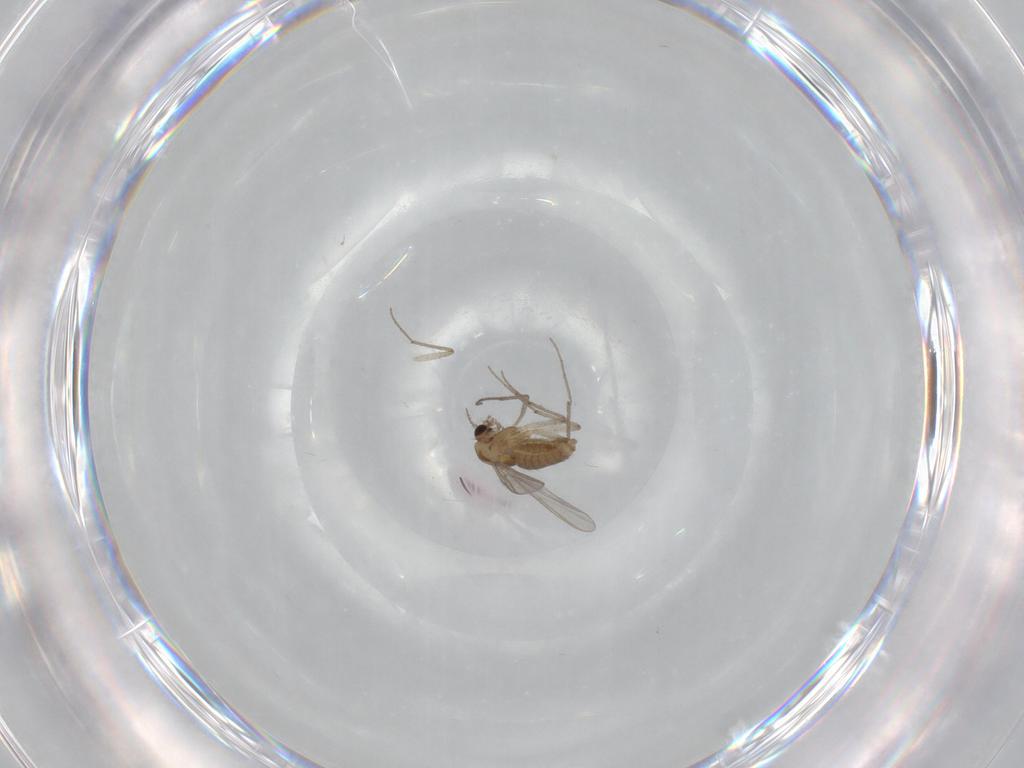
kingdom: Animalia
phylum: Arthropoda
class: Insecta
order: Diptera
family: Chironomidae
